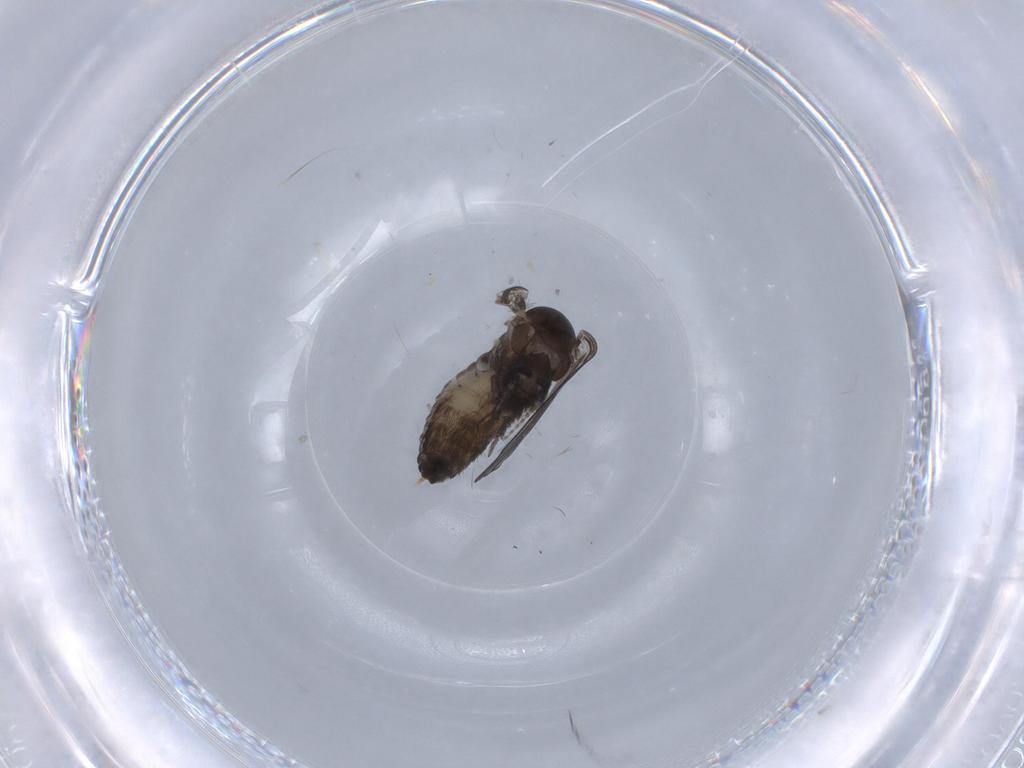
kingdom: Animalia
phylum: Arthropoda
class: Insecta
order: Diptera
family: Psychodidae
